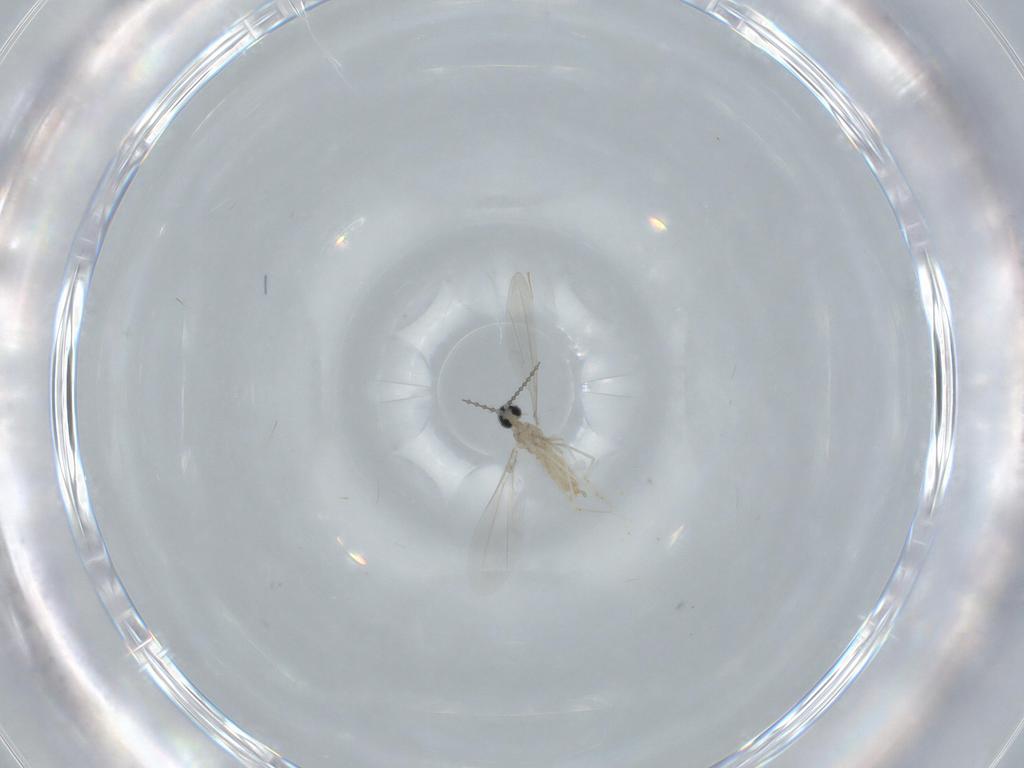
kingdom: Animalia
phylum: Arthropoda
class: Insecta
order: Diptera
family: Cecidomyiidae
